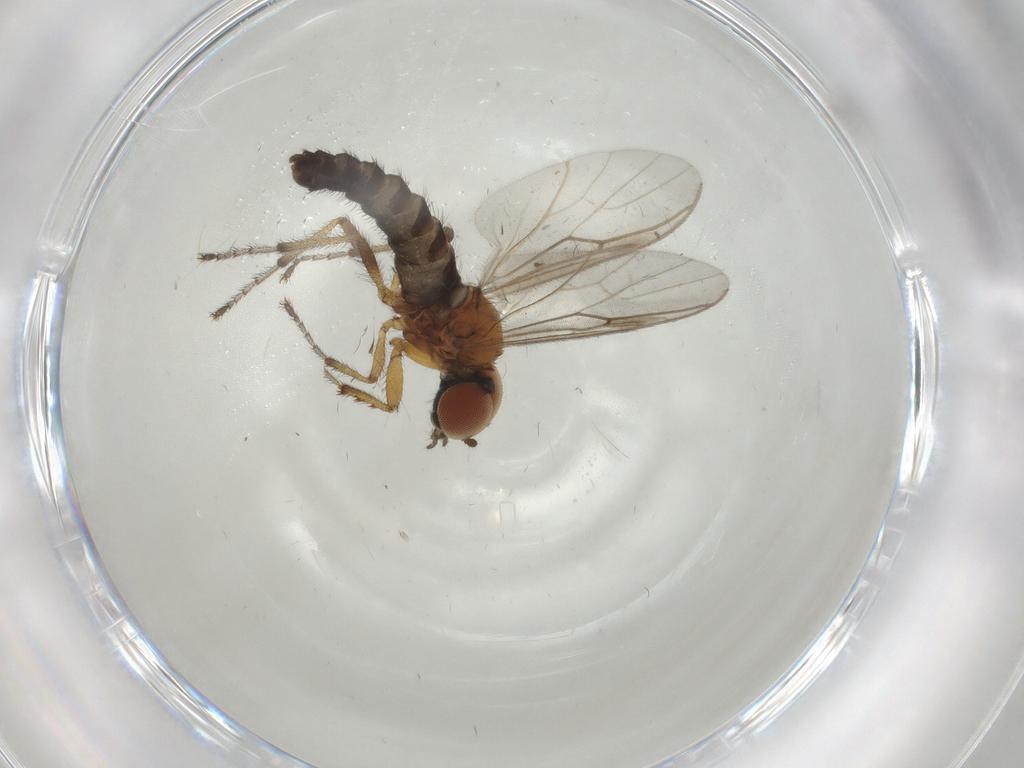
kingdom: Animalia
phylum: Arthropoda
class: Insecta
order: Diptera
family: Bibionidae
